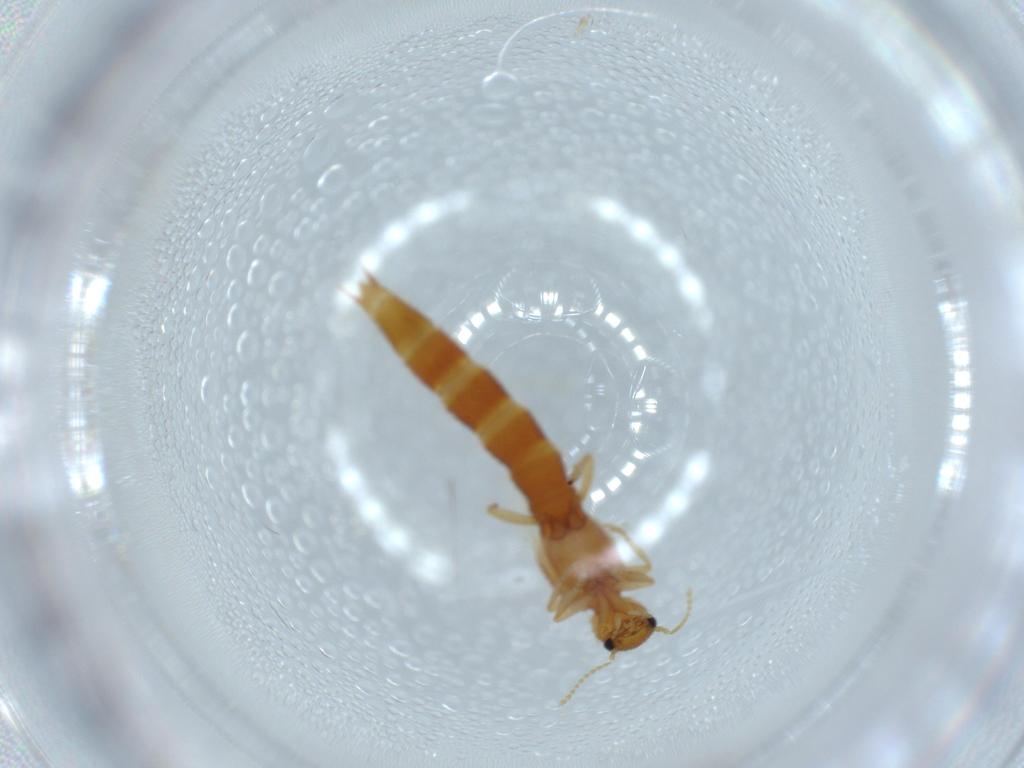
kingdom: Animalia
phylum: Arthropoda
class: Insecta
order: Coleoptera
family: Staphylinidae
